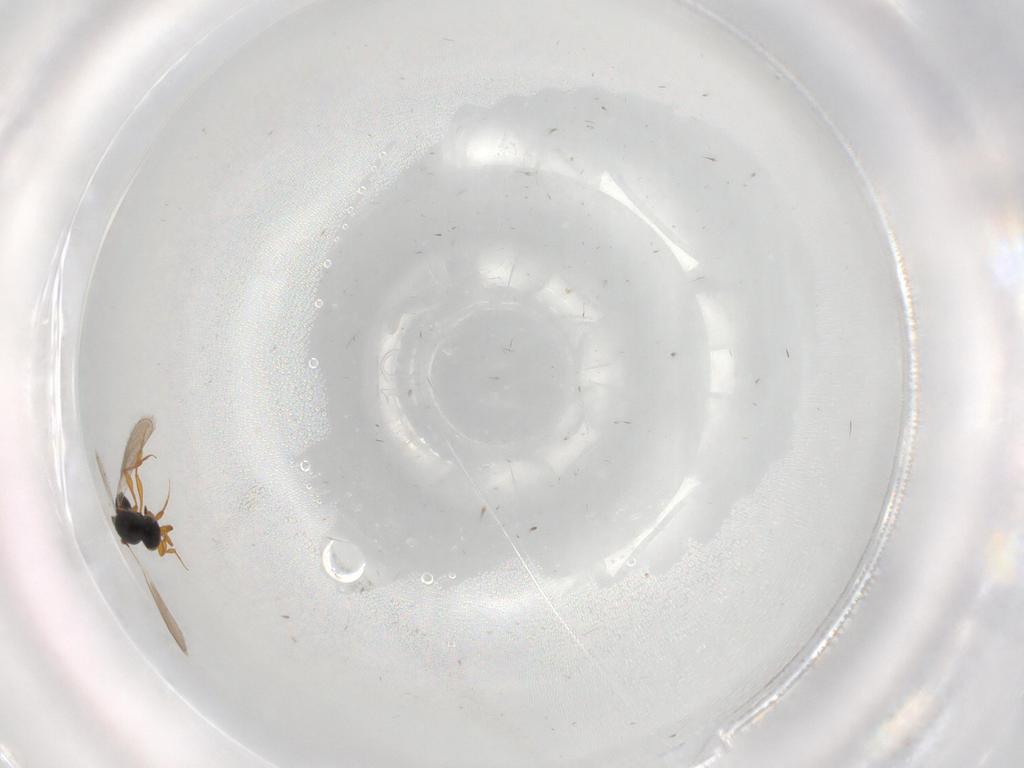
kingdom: Animalia
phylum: Arthropoda
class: Insecta
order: Hymenoptera
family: Platygastridae
